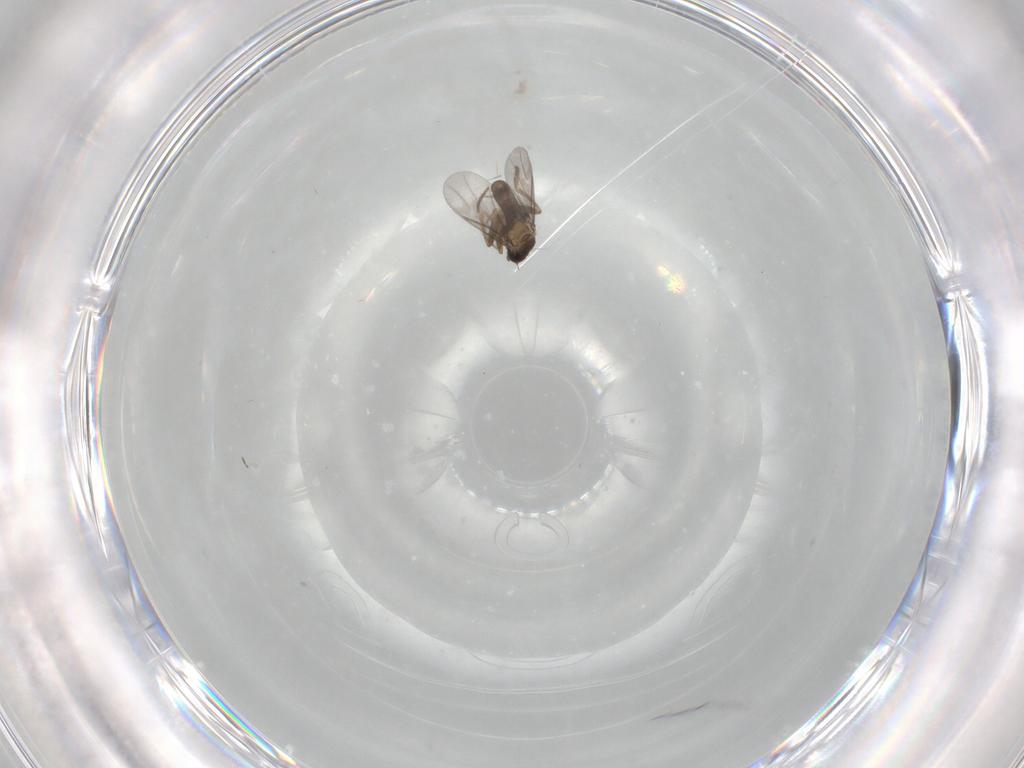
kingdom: Animalia
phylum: Arthropoda
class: Insecta
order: Diptera
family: Chironomidae
